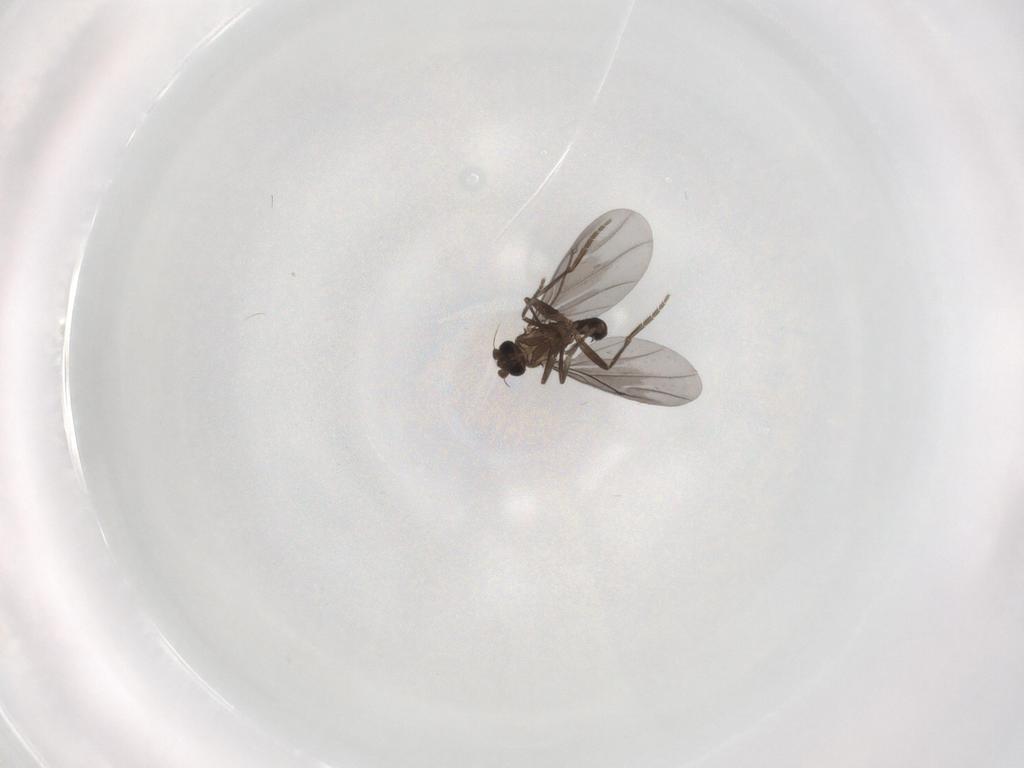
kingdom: Animalia
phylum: Arthropoda
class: Insecta
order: Diptera
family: Phoridae
